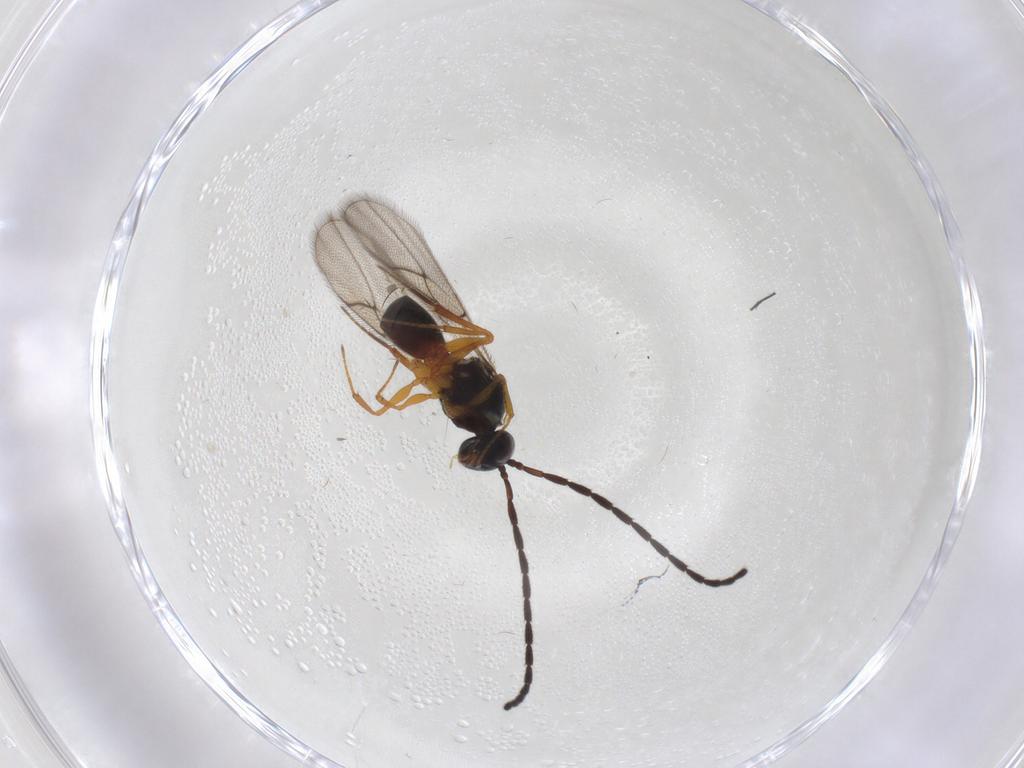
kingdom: Animalia
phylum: Arthropoda
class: Insecta
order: Hymenoptera
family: Figitidae
